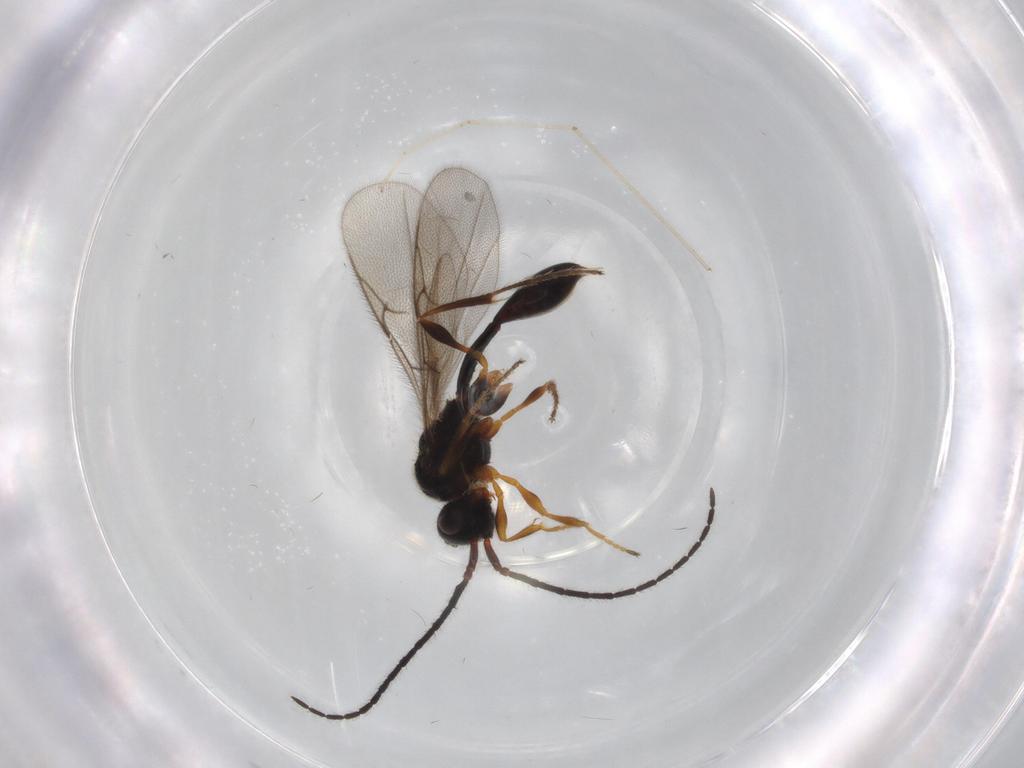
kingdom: Animalia
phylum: Arthropoda
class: Insecta
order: Hymenoptera
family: Diapriidae
